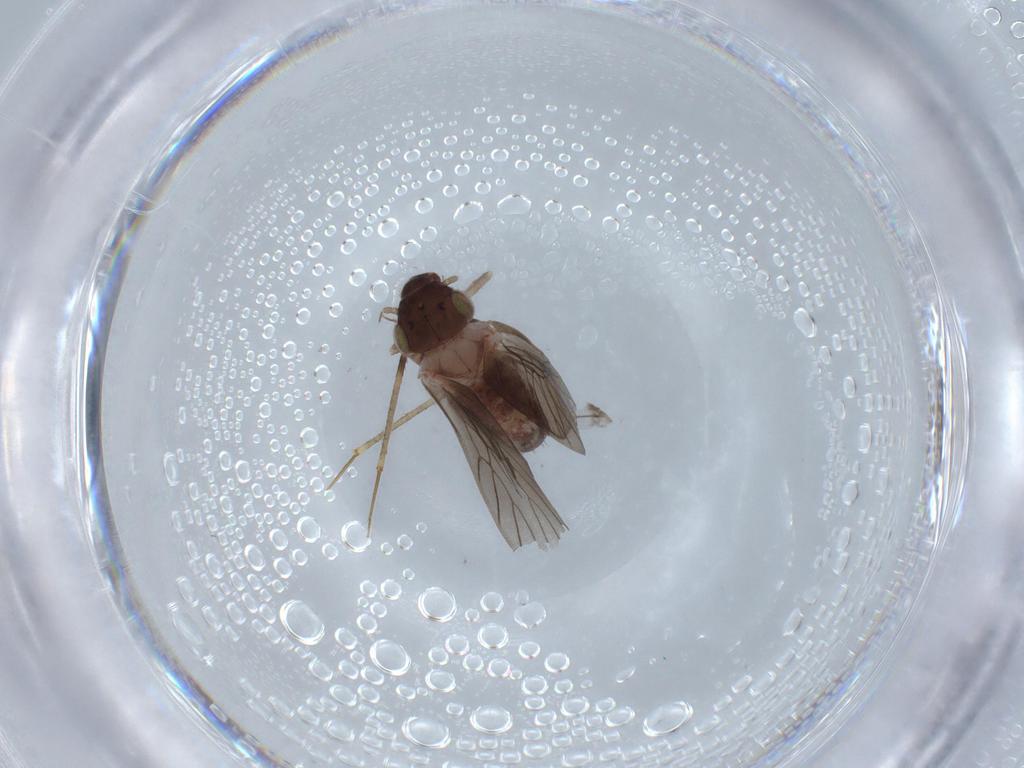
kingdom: Animalia
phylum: Arthropoda
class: Insecta
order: Psocodea
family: Lepidopsocidae
